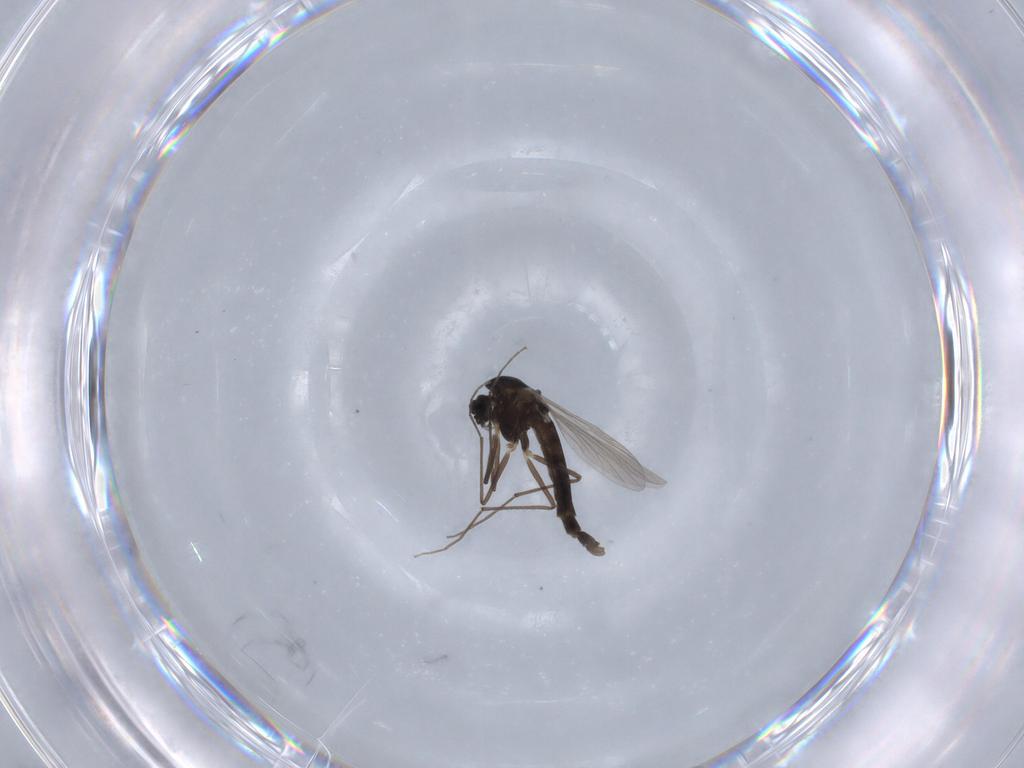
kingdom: Animalia
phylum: Arthropoda
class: Insecta
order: Diptera
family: Chironomidae
